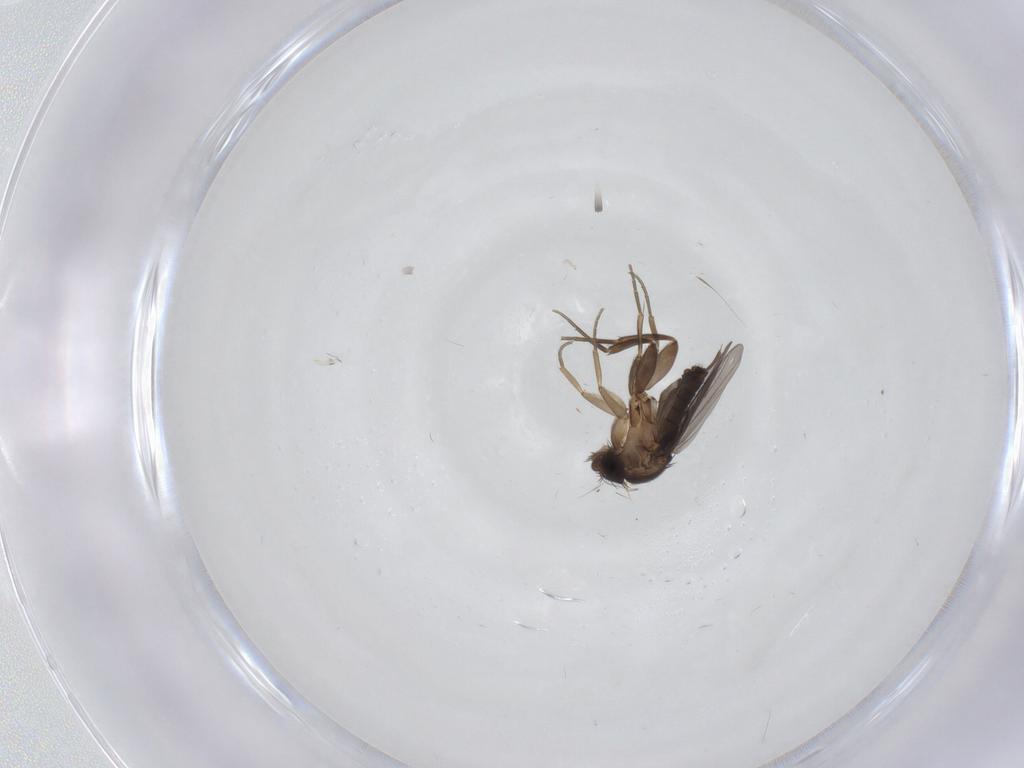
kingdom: Animalia
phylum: Arthropoda
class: Insecta
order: Diptera
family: Phoridae
